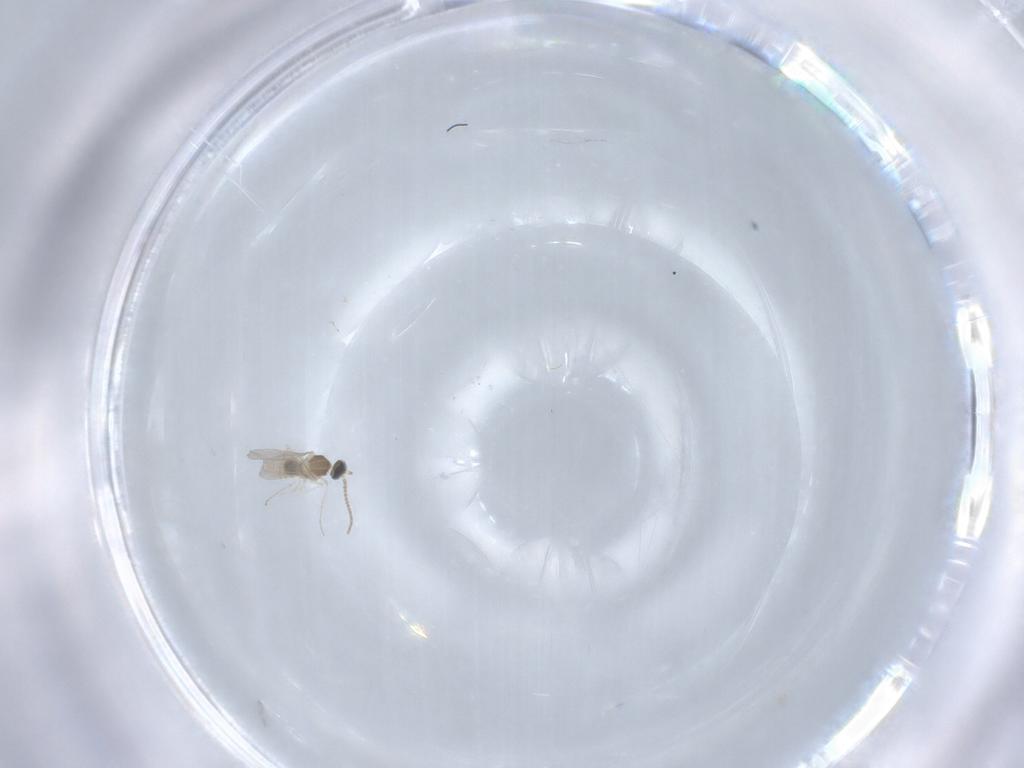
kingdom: Animalia
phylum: Arthropoda
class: Insecta
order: Diptera
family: Cecidomyiidae
